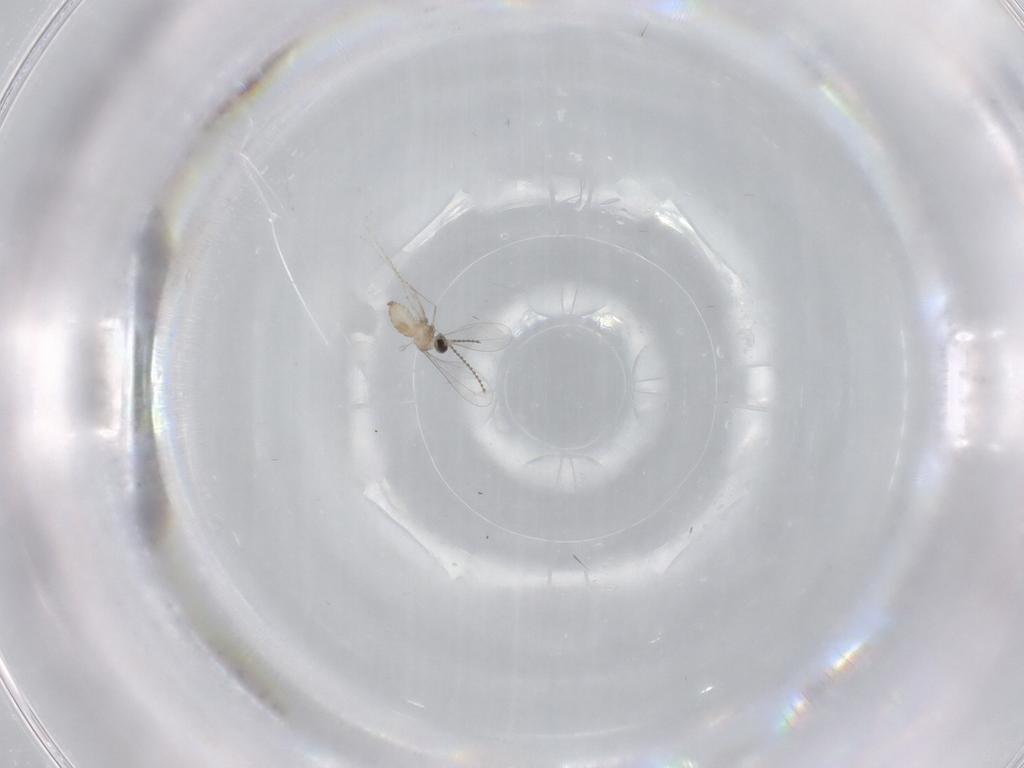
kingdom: Animalia
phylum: Arthropoda
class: Insecta
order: Diptera
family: Cecidomyiidae
